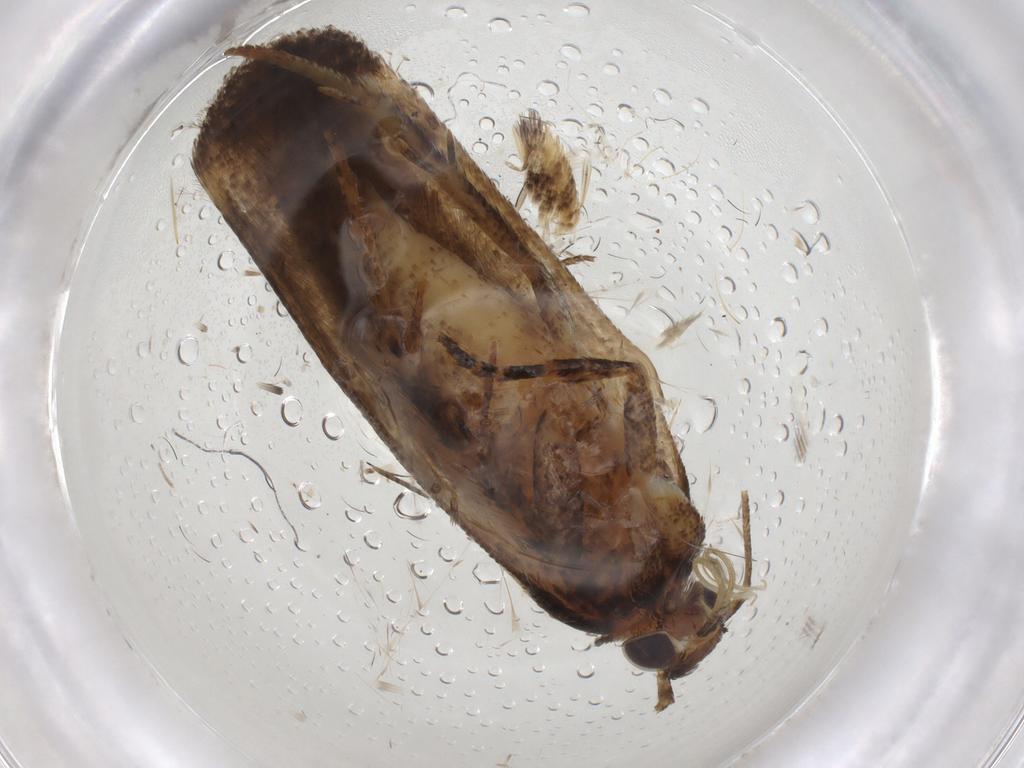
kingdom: Animalia
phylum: Arthropoda
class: Insecta
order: Lepidoptera
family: Gelechiidae
